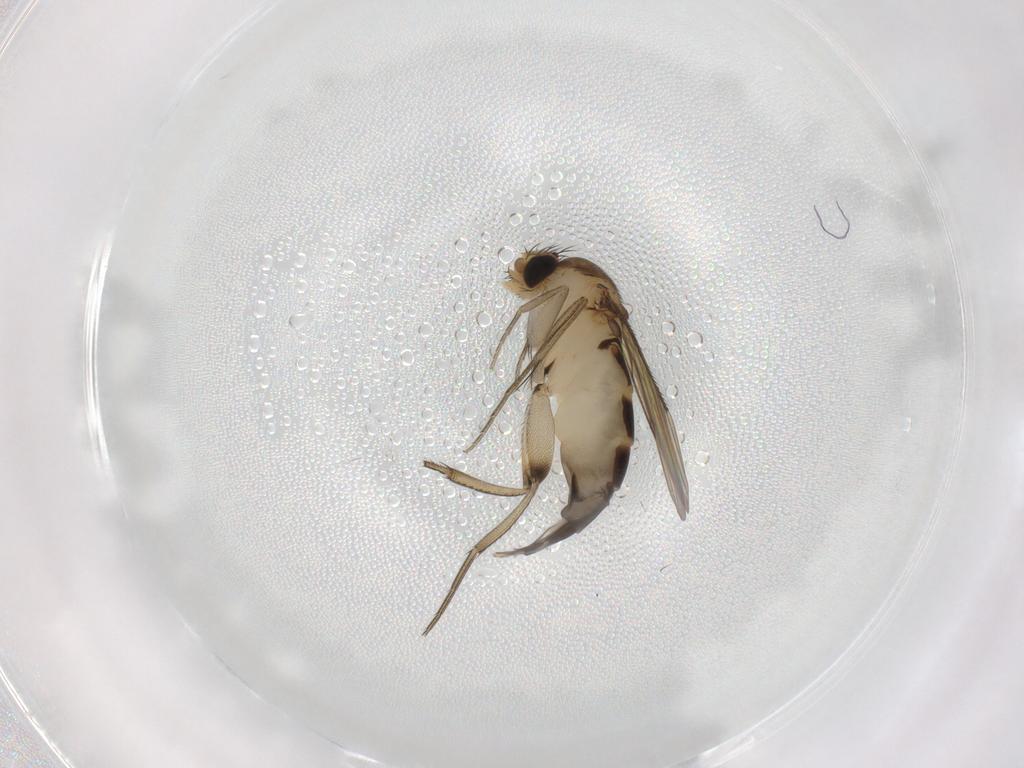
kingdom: Animalia
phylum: Arthropoda
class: Insecta
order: Diptera
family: Phoridae
